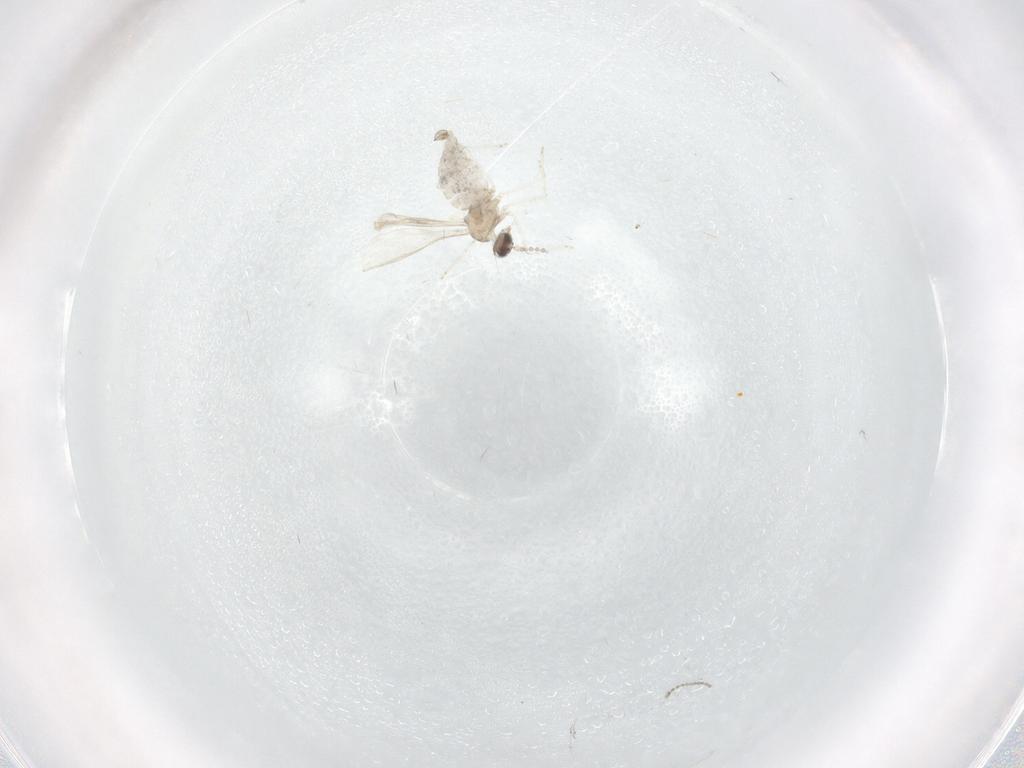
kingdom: Animalia
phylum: Arthropoda
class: Insecta
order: Diptera
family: Cecidomyiidae
